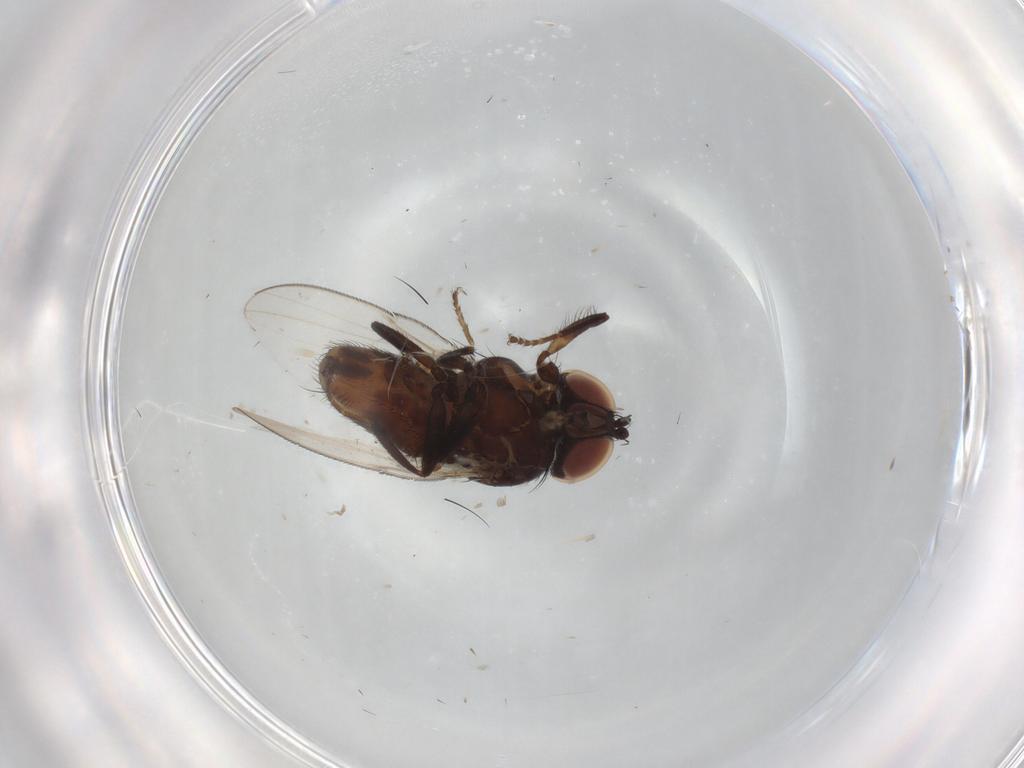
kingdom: Animalia
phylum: Arthropoda
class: Insecta
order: Diptera
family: Milichiidae
